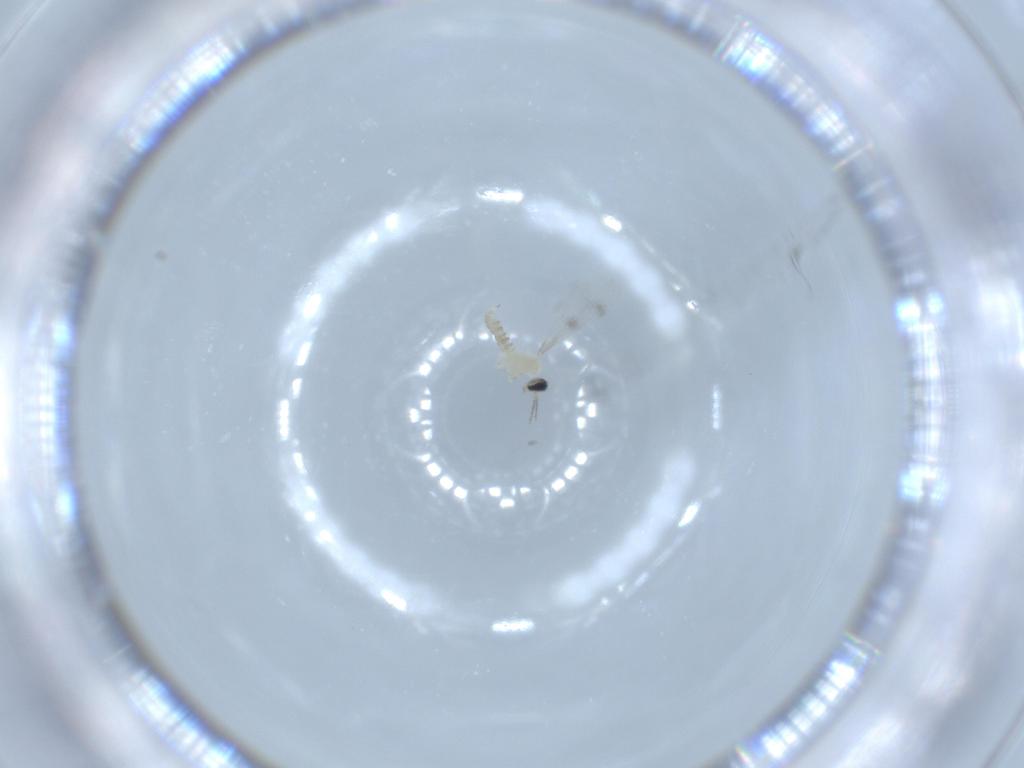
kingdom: Animalia
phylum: Arthropoda
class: Insecta
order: Diptera
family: Cecidomyiidae
